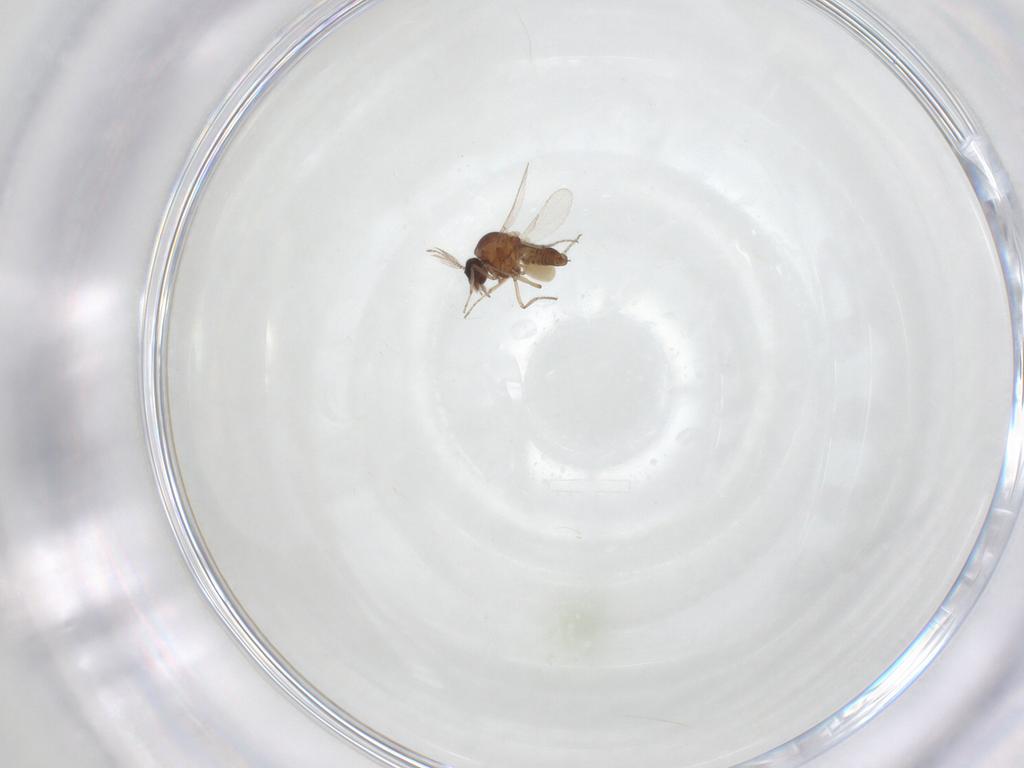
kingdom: Animalia
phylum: Arthropoda
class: Insecta
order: Diptera
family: Ceratopogonidae
